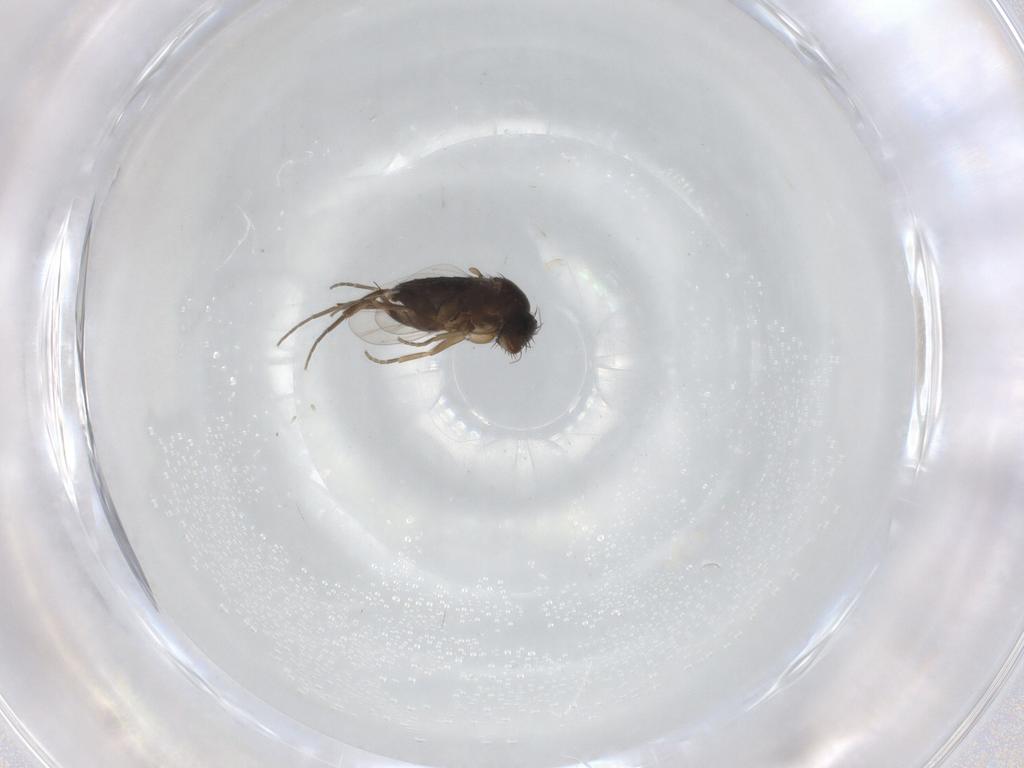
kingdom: Animalia
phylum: Arthropoda
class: Insecta
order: Diptera
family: Phoridae
